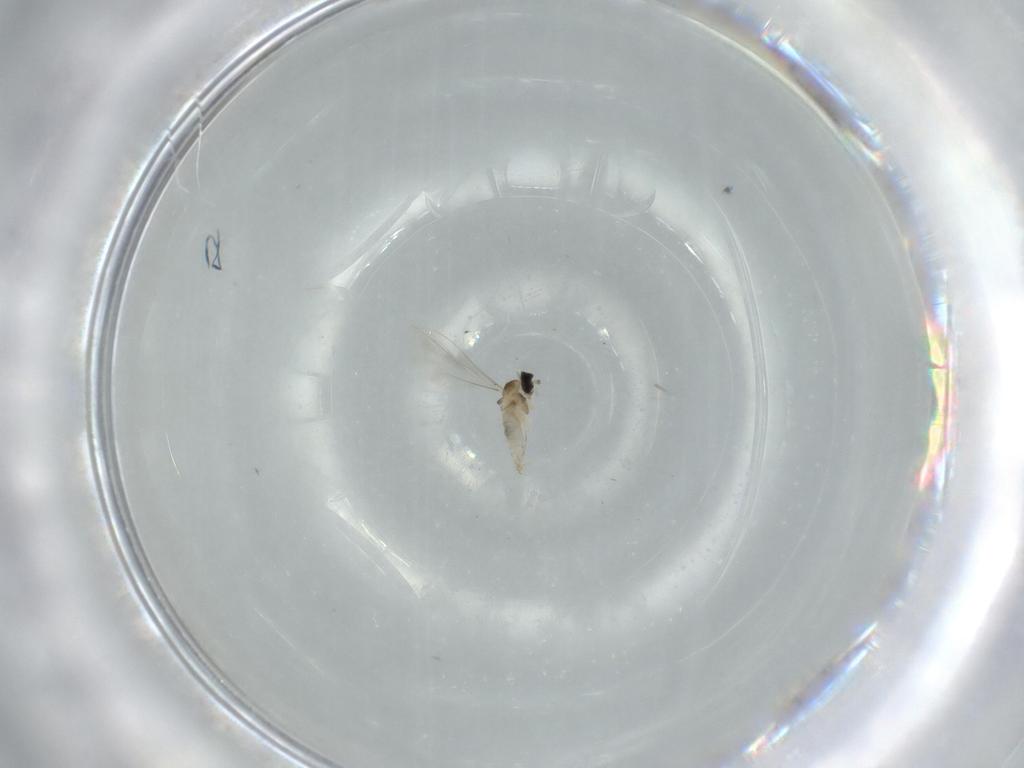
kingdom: Animalia
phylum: Arthropoda
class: Insecta
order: Diptera
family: Cecidomyiidae
